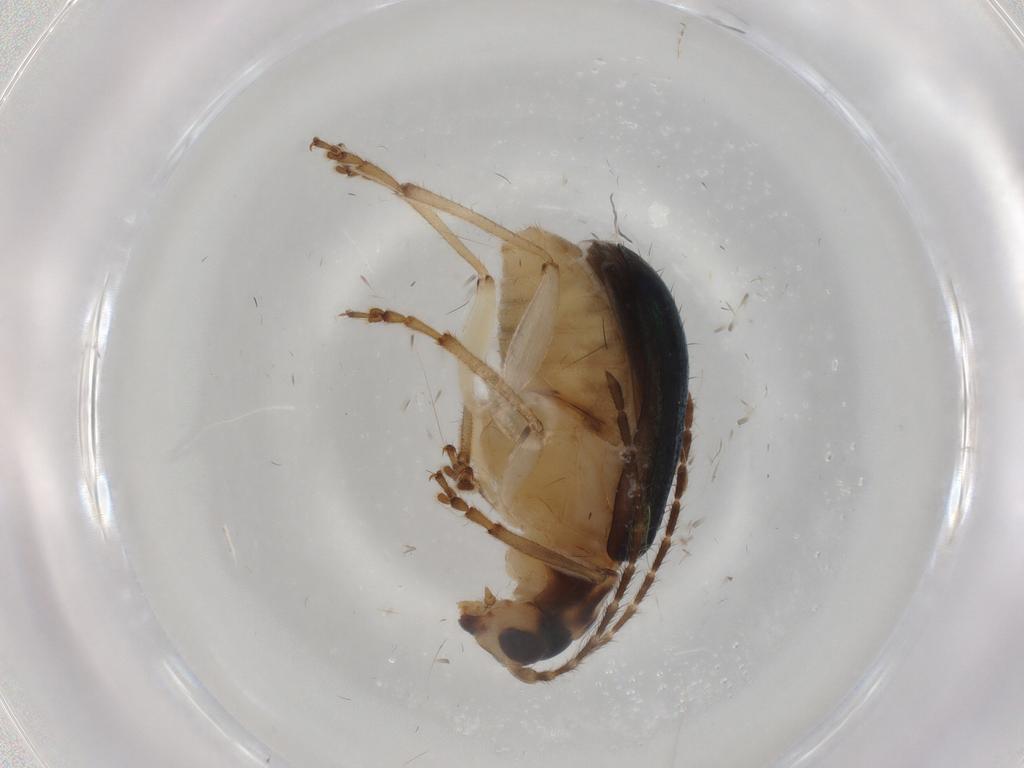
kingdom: Animalia
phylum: Arthropoda
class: Insecta
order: Coleoptera
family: Chrysomelidae
